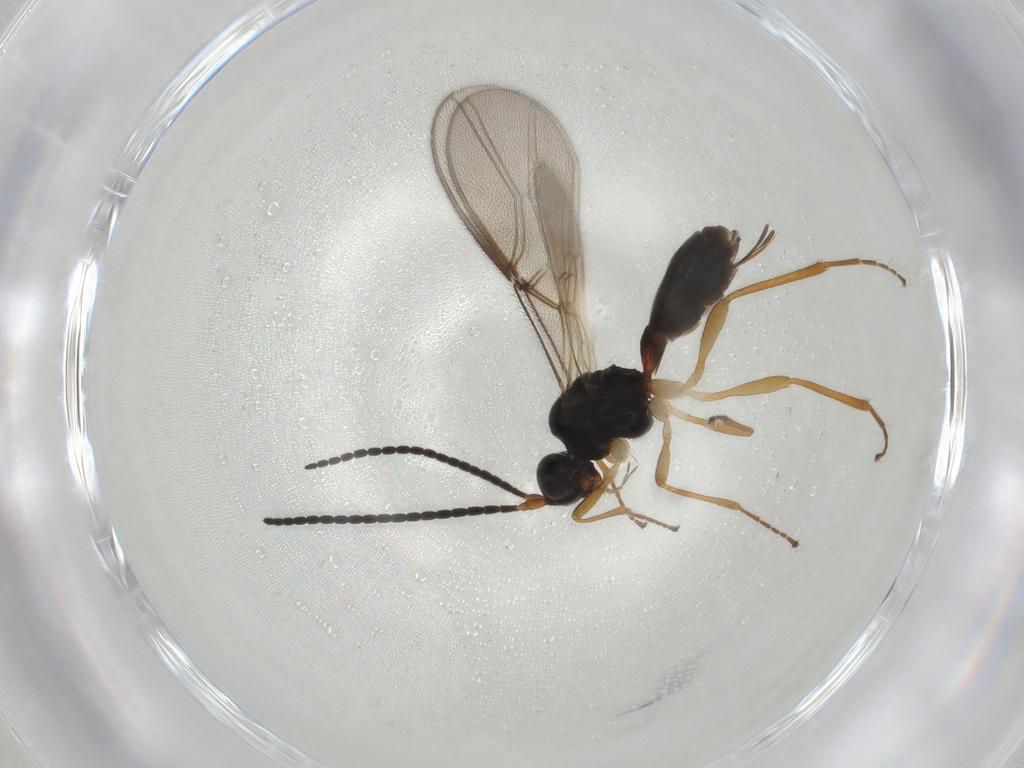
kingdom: Animalia
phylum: Arthropoda
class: Insecta
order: Hymenoptera
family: Braconidae
